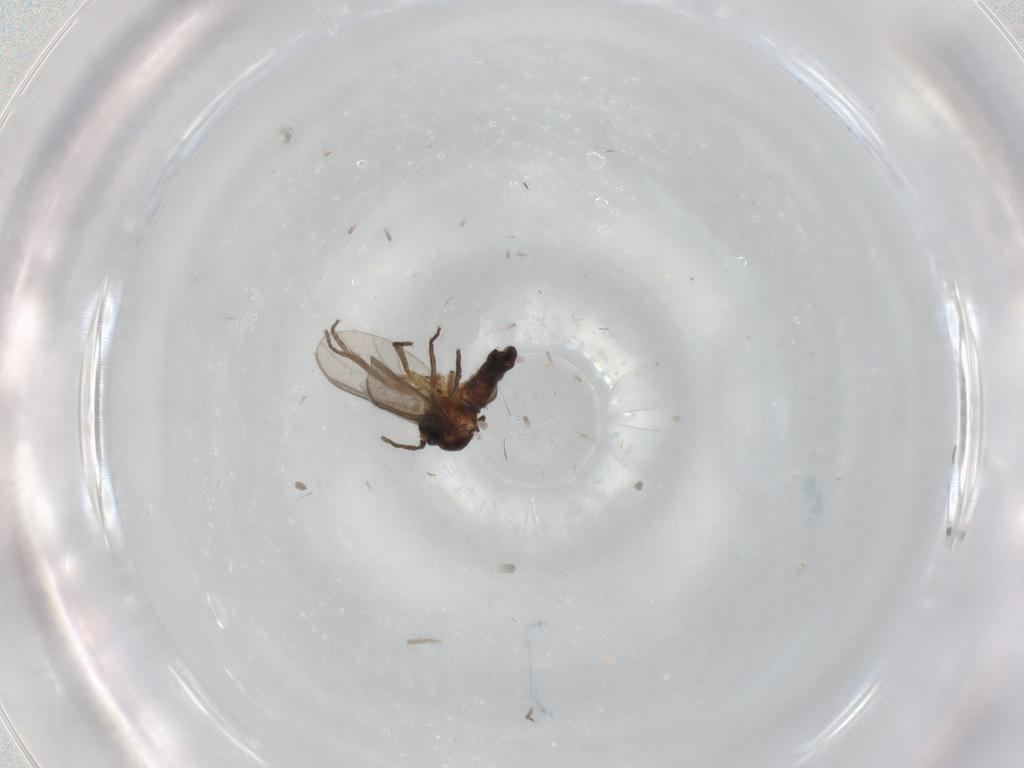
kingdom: Animalia
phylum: Arthropoda
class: Insecta
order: Diptera
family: Sciaridae
